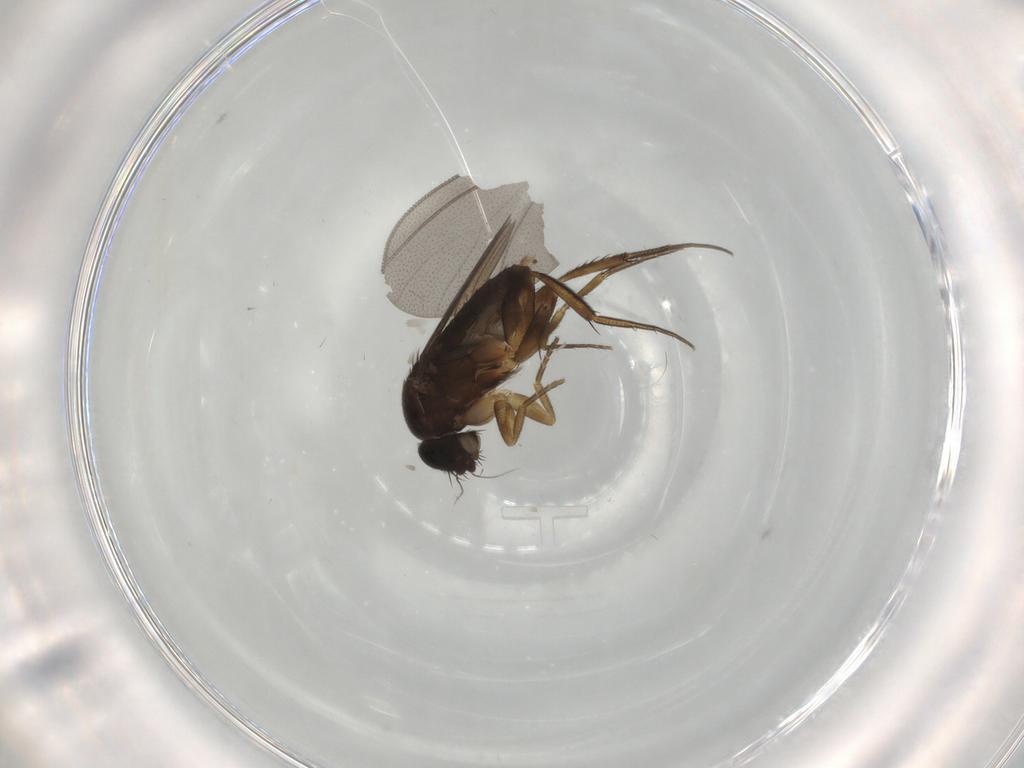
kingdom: Animalia
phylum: Arthropoda
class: Insecta
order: Diptera
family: Phoridae
